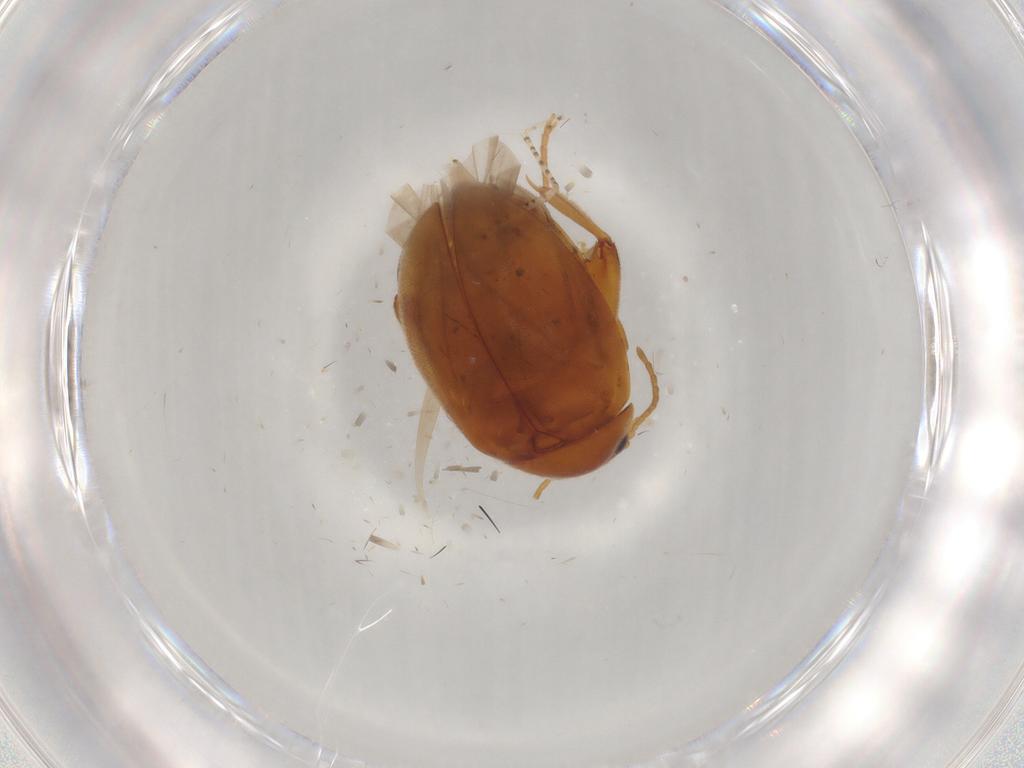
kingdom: Animalia
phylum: Arthropoda
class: Insecta
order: Coleoptera
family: Scirtidae
